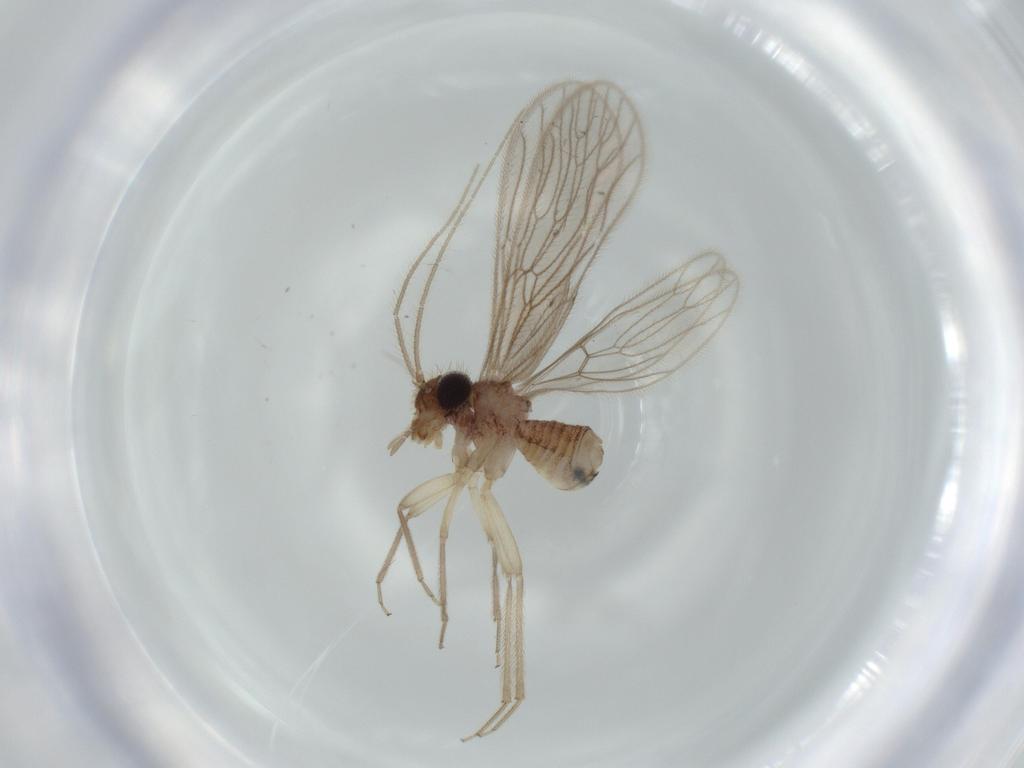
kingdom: Animalia
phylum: Arthropoda
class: Insecta
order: Psocodea
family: Cladiopsocidae
